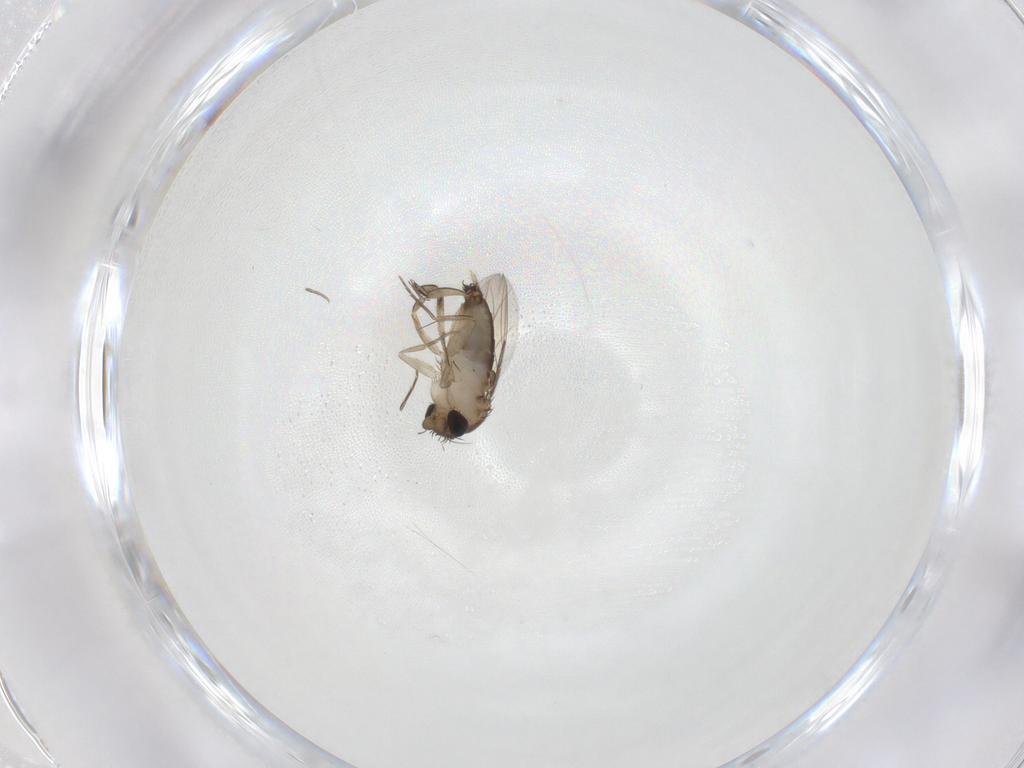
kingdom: Animalia
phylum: Arthropoda
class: Insecta
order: Diptera
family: Phoridae
